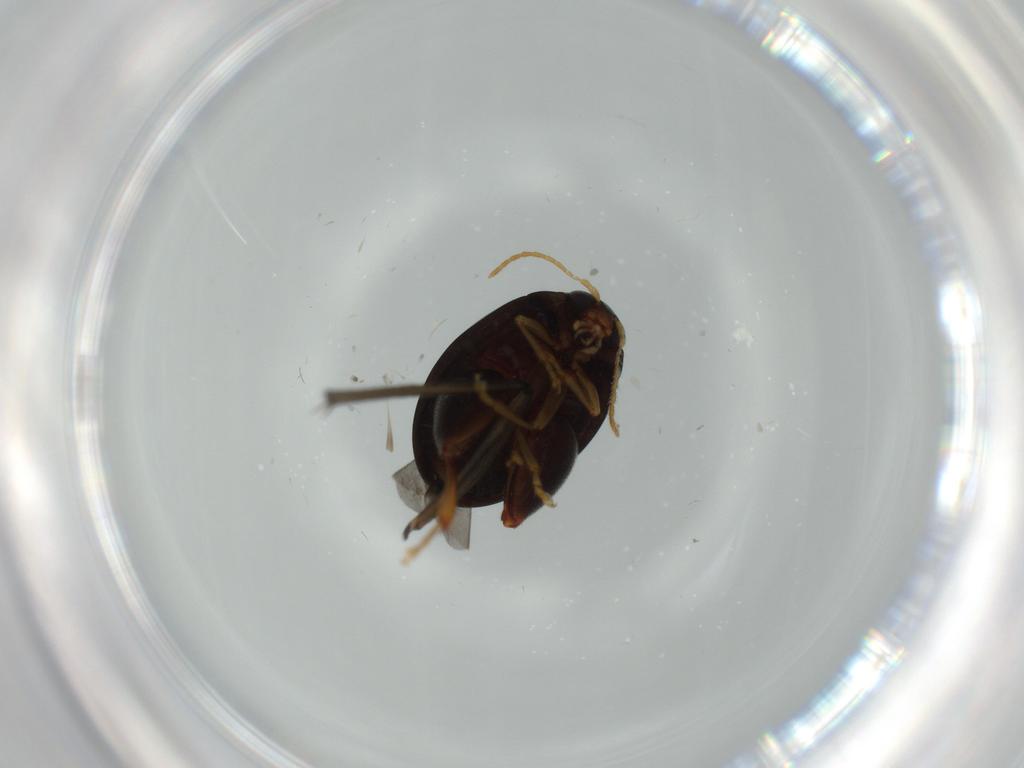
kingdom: Animalia
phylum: Arthropoda
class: Insecta
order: Coleoptera
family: Chrysomelidae
